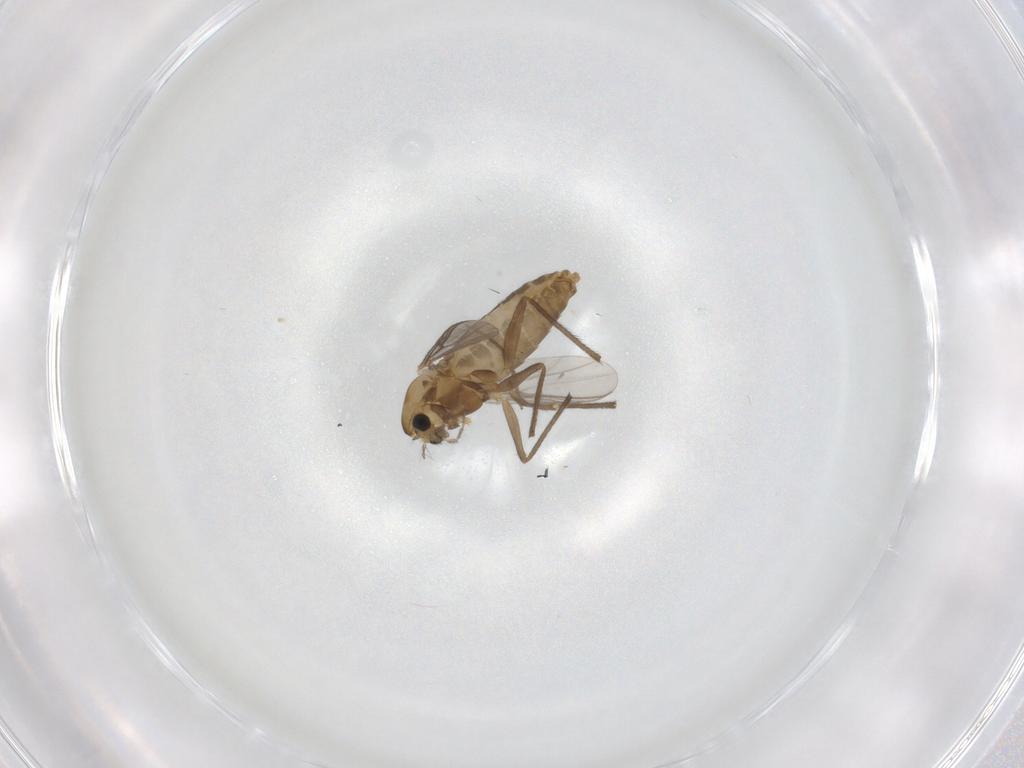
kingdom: Animalia
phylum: Arthropoda
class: Insecta
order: Diptera
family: Chironomidae
